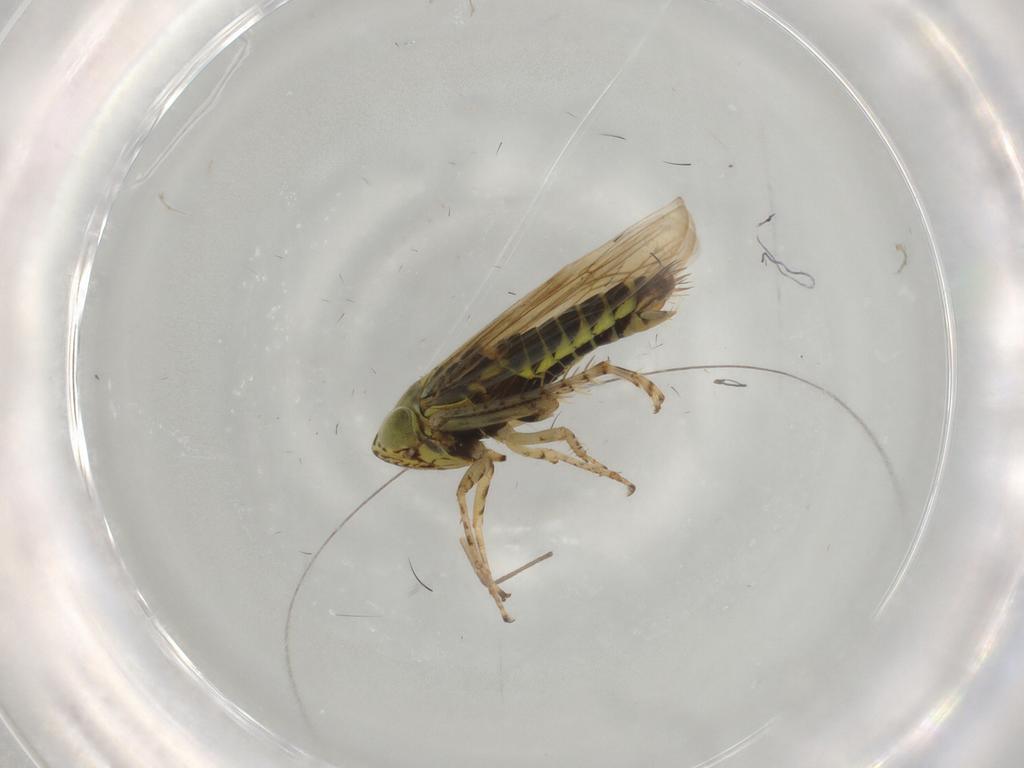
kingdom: Animalia
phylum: Arthropoda
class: Insecta
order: Hemiptera
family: Cicadellidae
